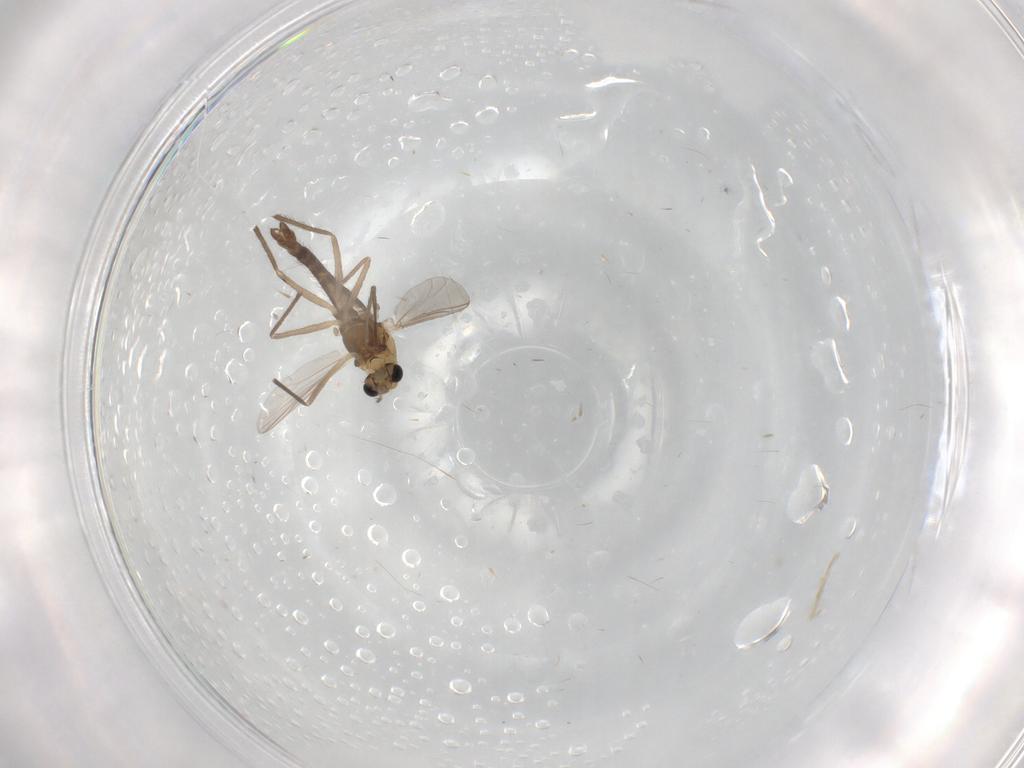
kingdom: Animalia
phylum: Arthropoda
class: Insecta
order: Diptera
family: Chironomidae
